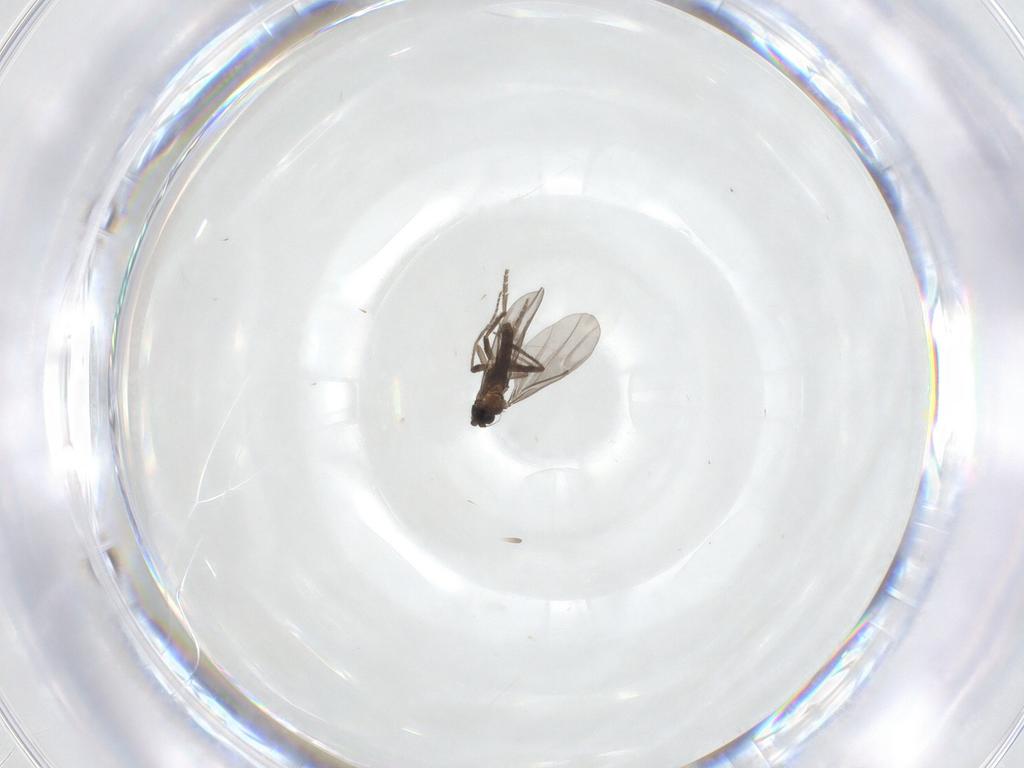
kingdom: Animalia
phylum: Arthropoda
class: Insecta
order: Diptera
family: Phoridae
